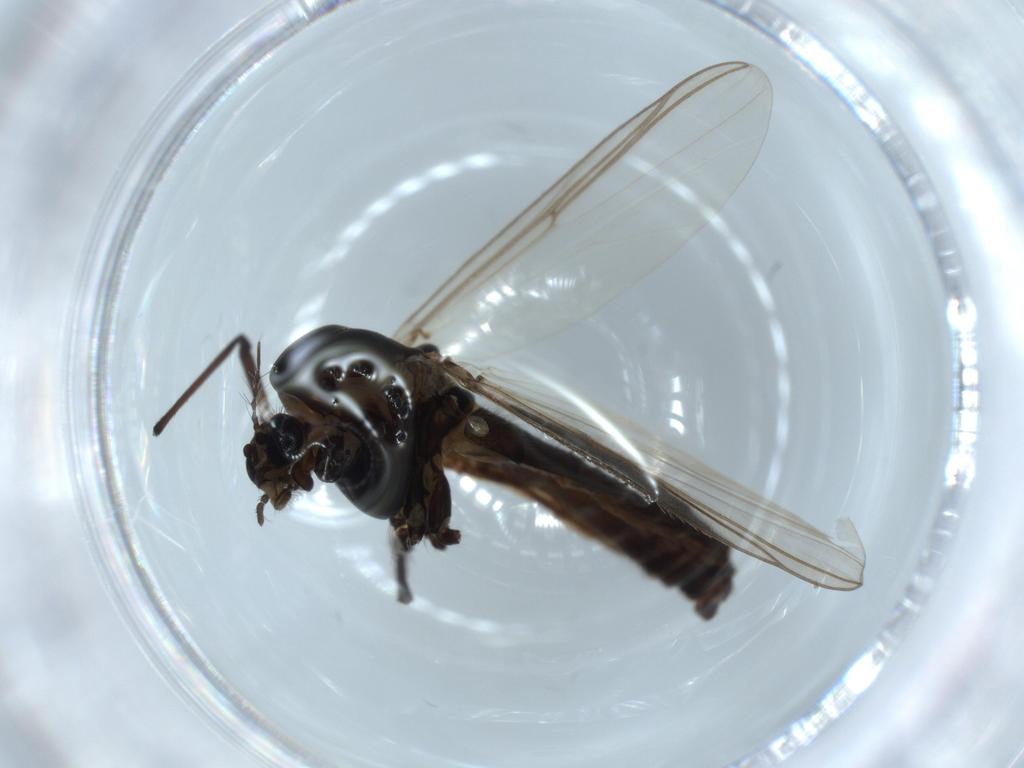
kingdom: Animalia
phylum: Arthropoda
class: Insecta
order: Diptera
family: Chironomidae
